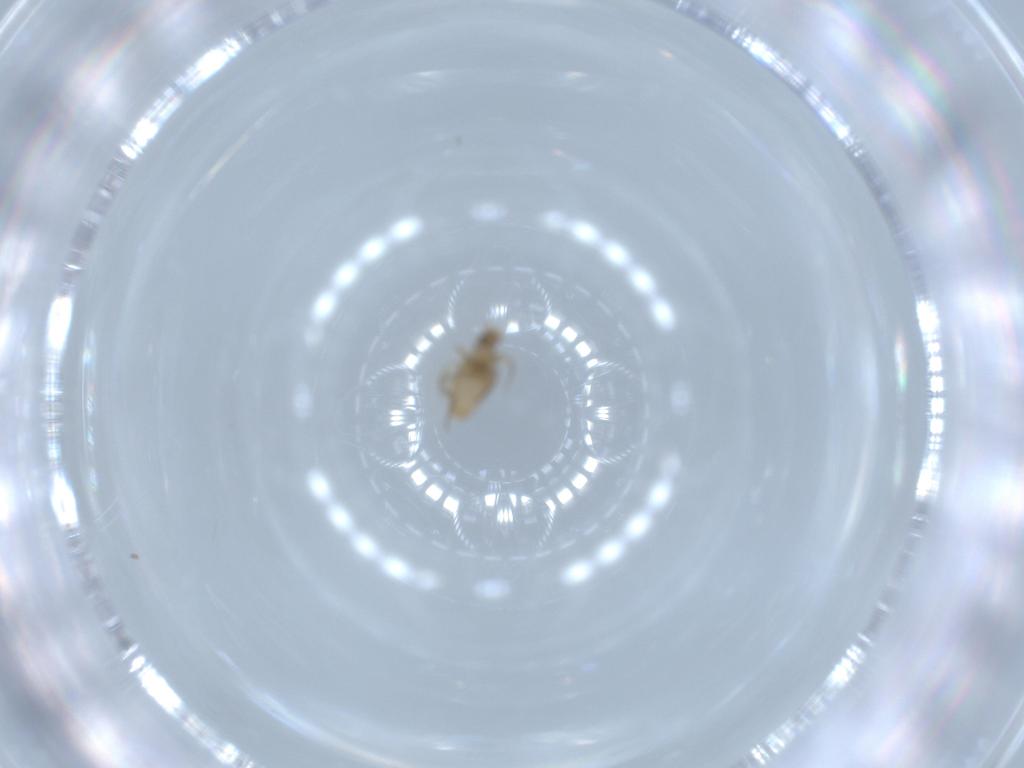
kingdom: Animalia
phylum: Arthropoda
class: Insecta
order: Diptera
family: Phoridae
